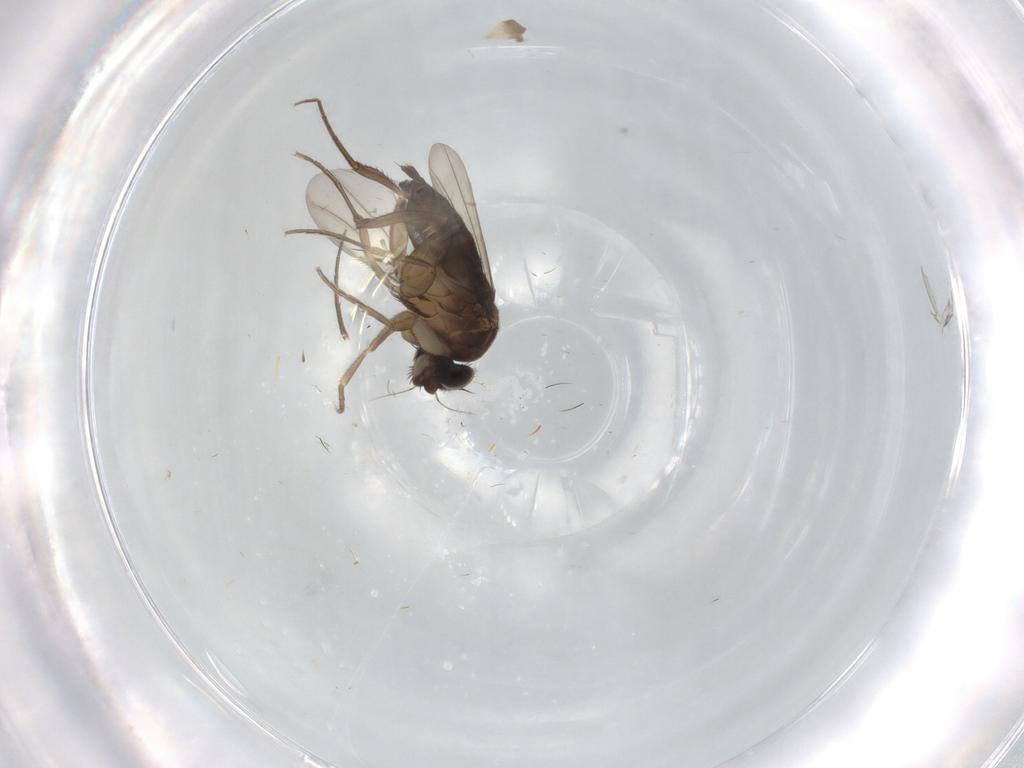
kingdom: Animalia
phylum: Arthropoda
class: Insecta
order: Diptera
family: Phoridae
